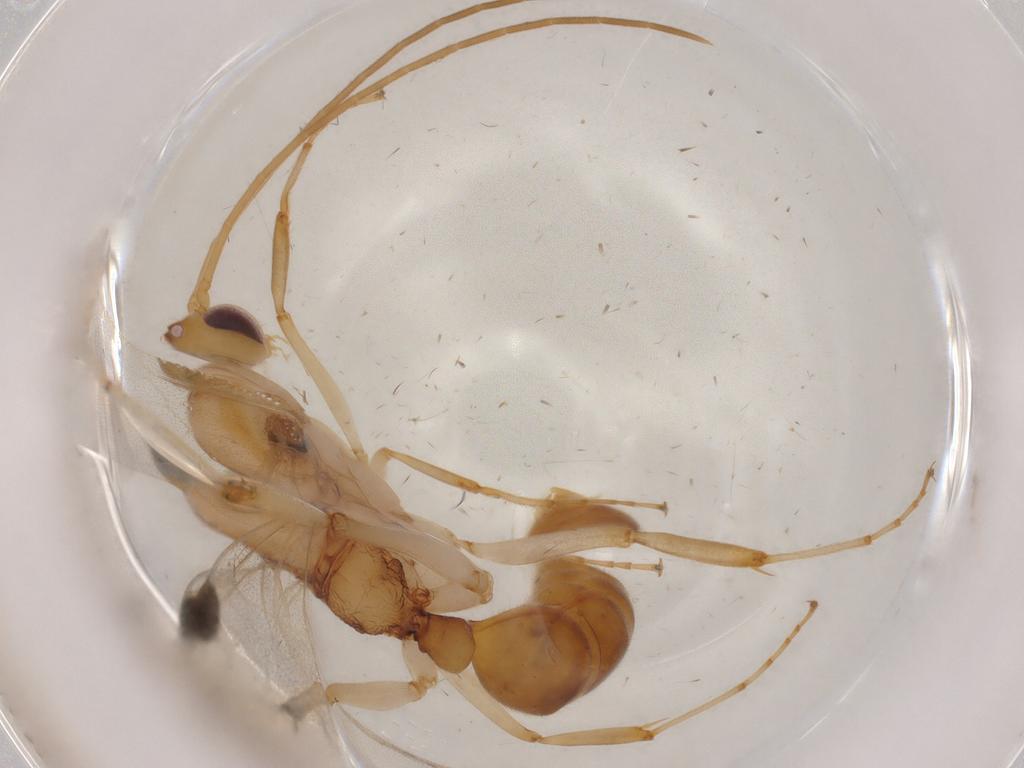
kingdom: Animalia
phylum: Arthropoda
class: Insecta
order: Hymenoptera
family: Formicidae
